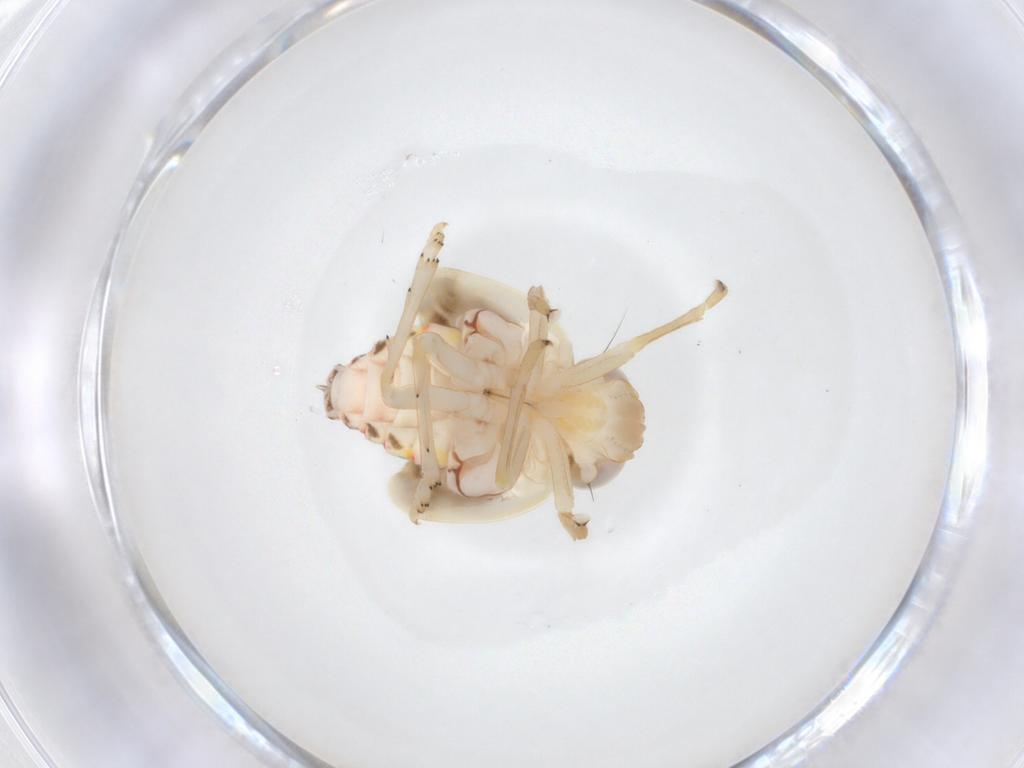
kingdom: Animalia
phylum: Arthropoda
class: Insecta
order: Hemiptera
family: Nogodinidae
